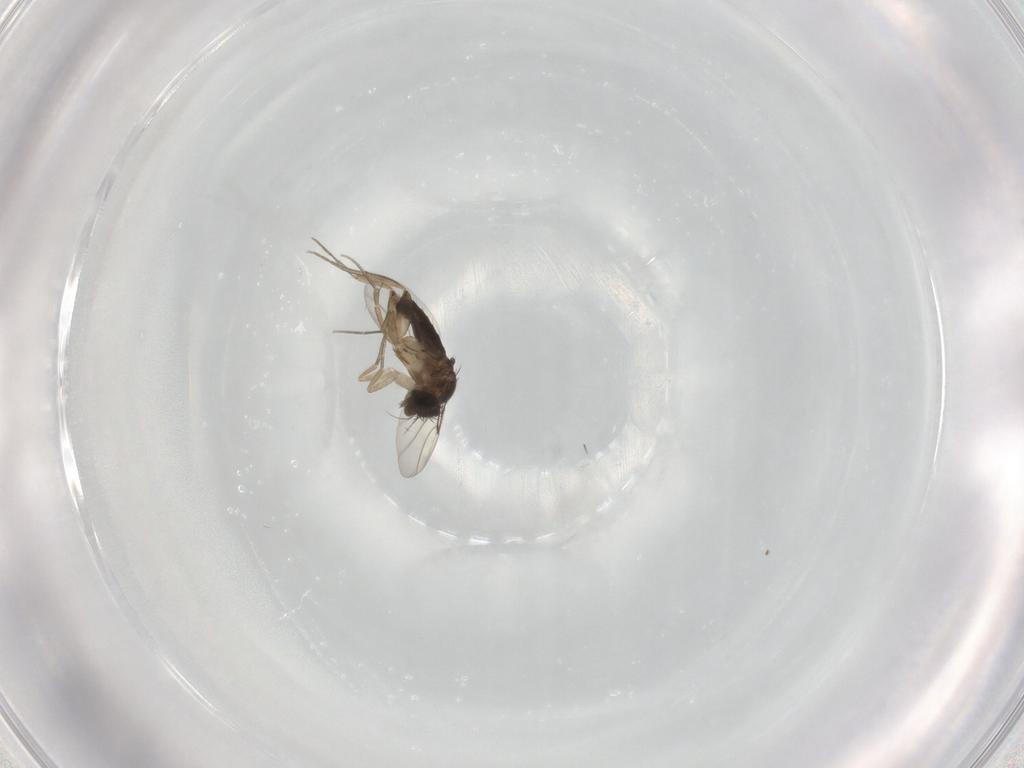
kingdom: Animalia
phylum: Arthropoda
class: Insecta
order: Diptera
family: Phoridae
